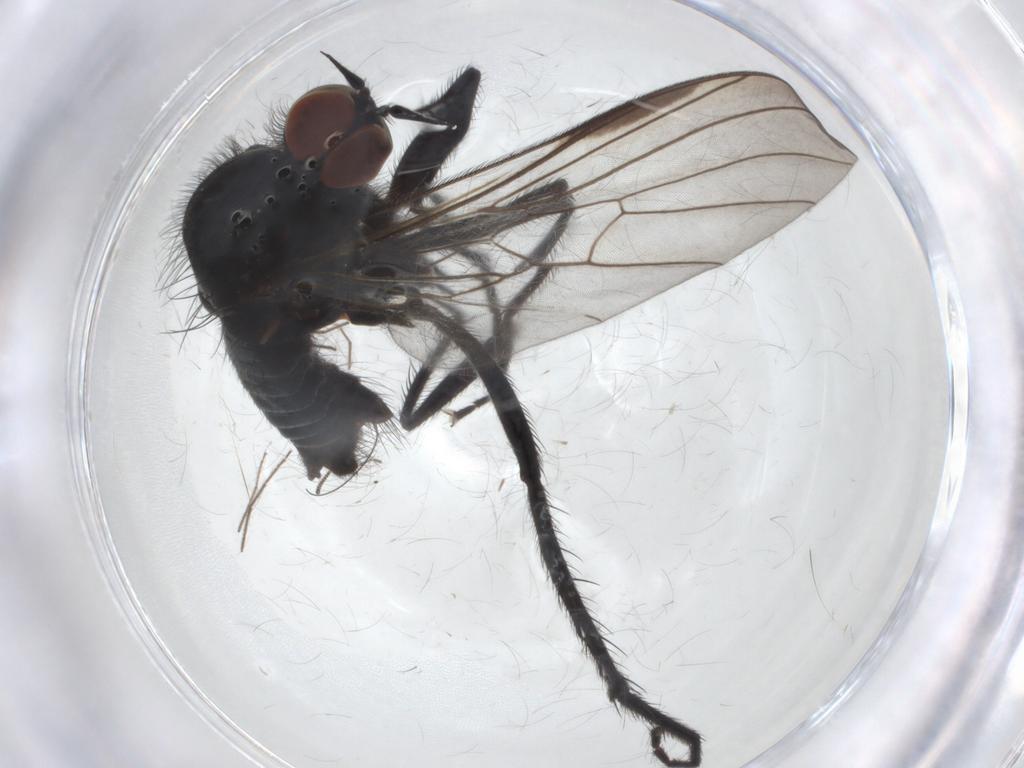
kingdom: Animalia
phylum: Arthropoda
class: Insecta
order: Diptera
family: Empididae
